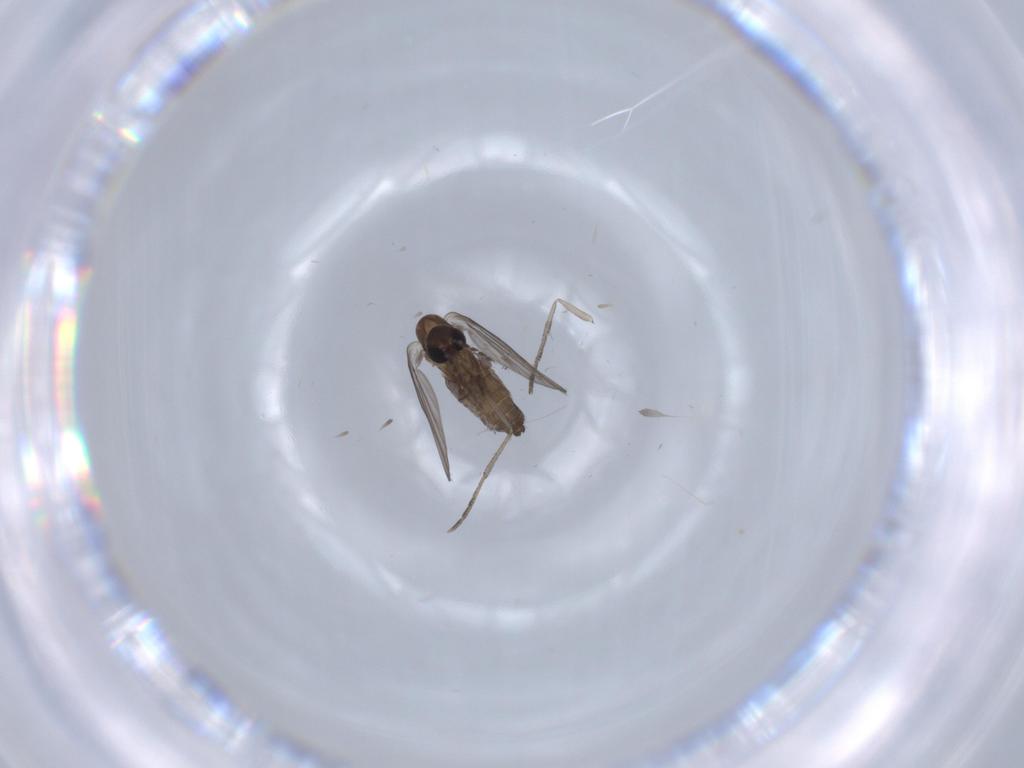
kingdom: Animalia
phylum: Arthropoda
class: Insecta
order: Diptera
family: Psychodidae
